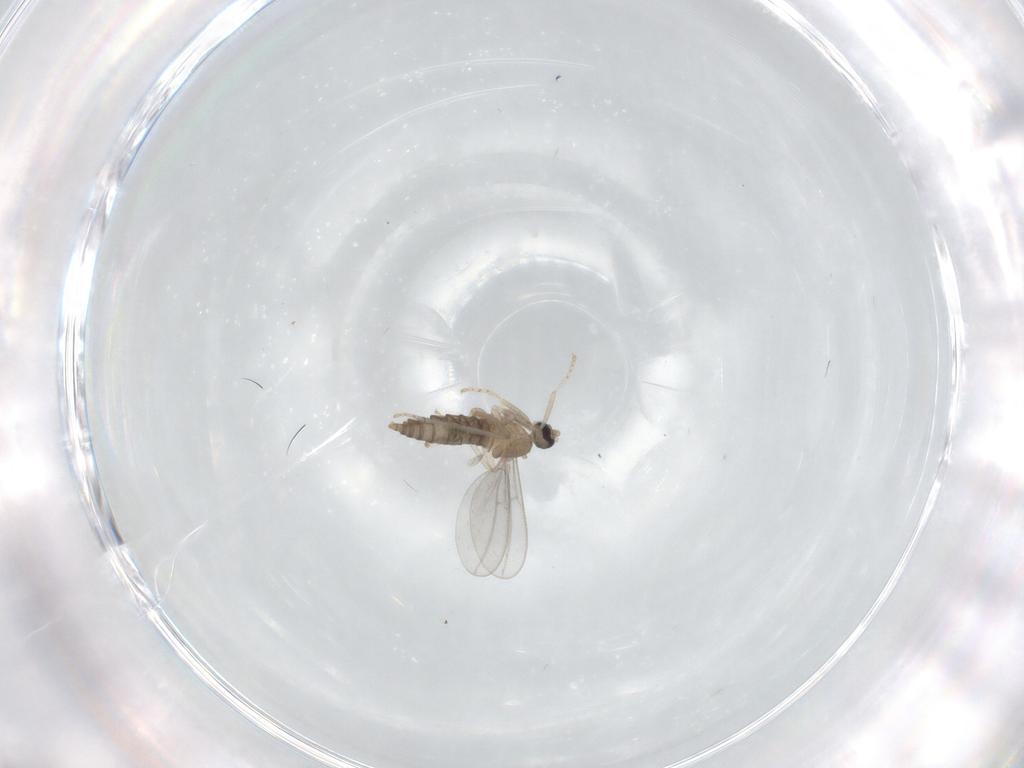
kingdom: Animalia
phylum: Arthropoda
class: Insecta
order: Diptera
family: Cecidomyiidae
